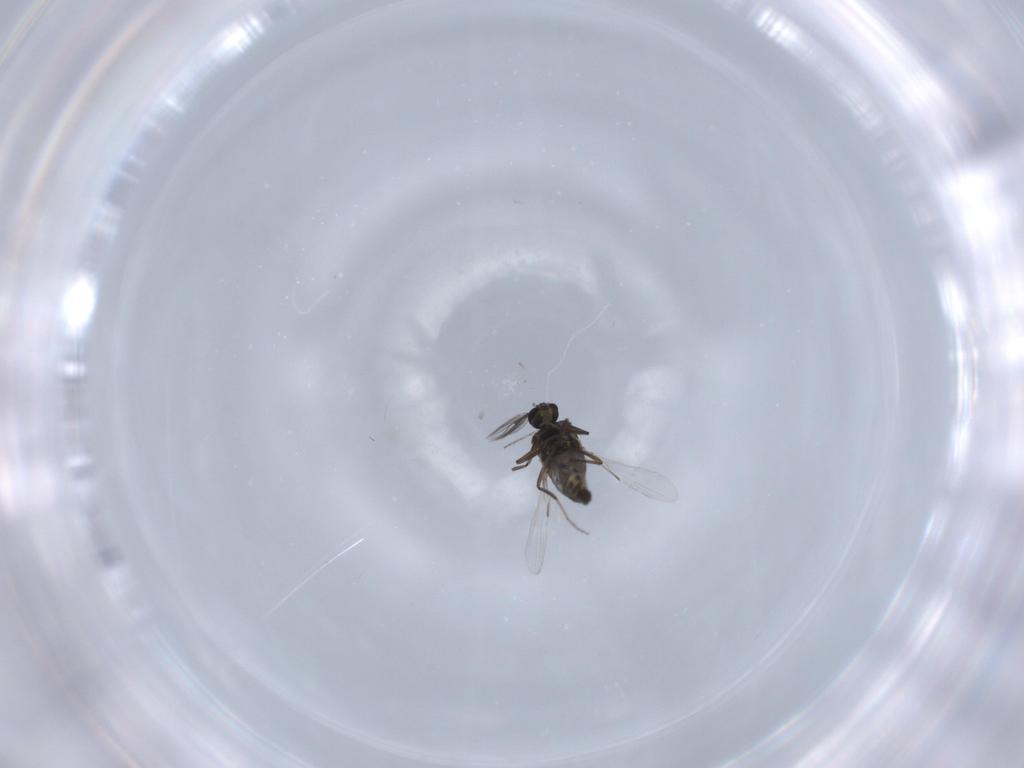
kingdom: Animalia
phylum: Arthropoda
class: Insecta
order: Diptera
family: Ceratopogonidae
